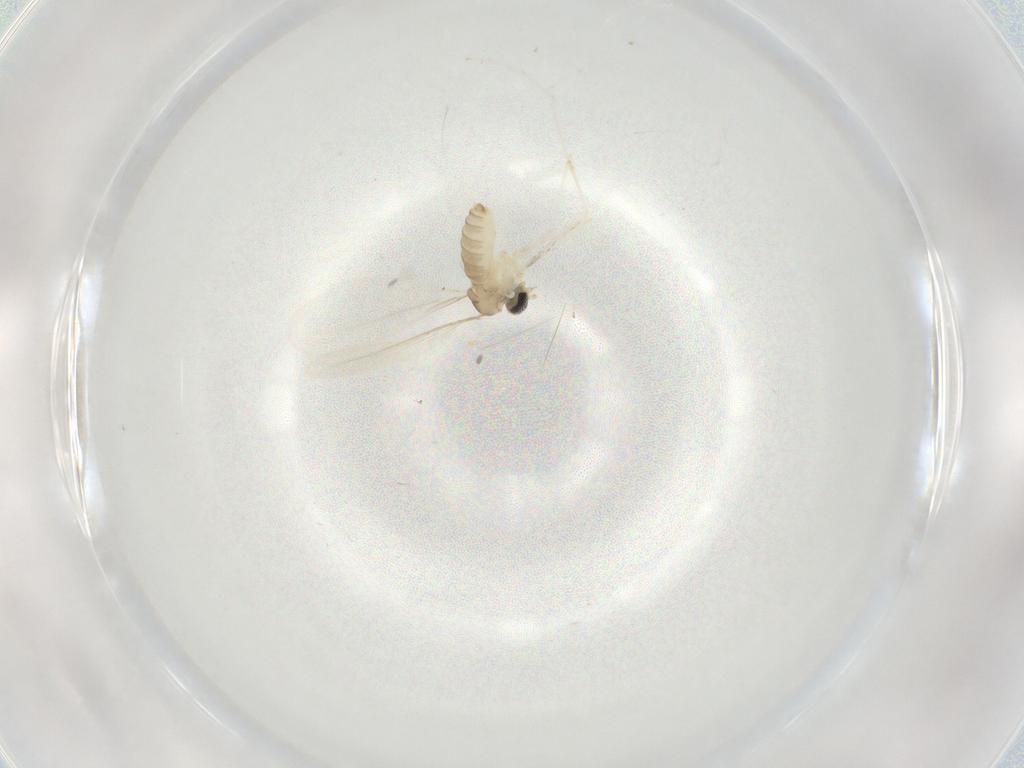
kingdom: Animalia
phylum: Arthropoda
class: Insecta
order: Diptera
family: Cecidomyiidae
